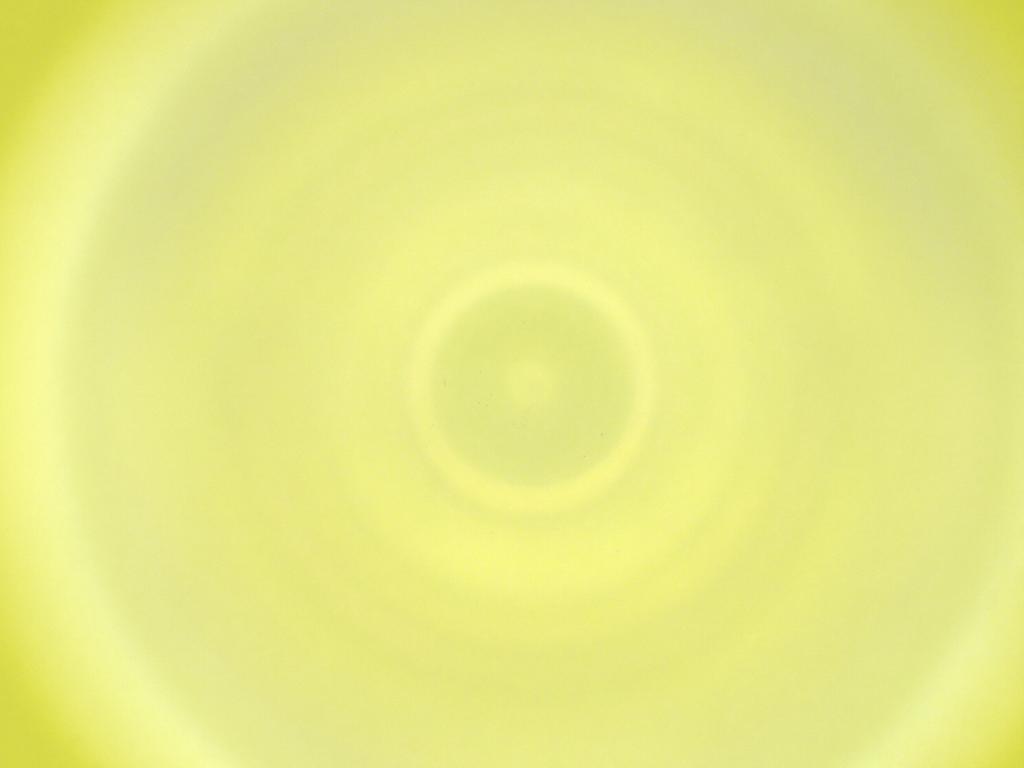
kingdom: Animalia
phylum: Arthropoda
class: Insecta
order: Diptera
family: Cecidomyiidae
